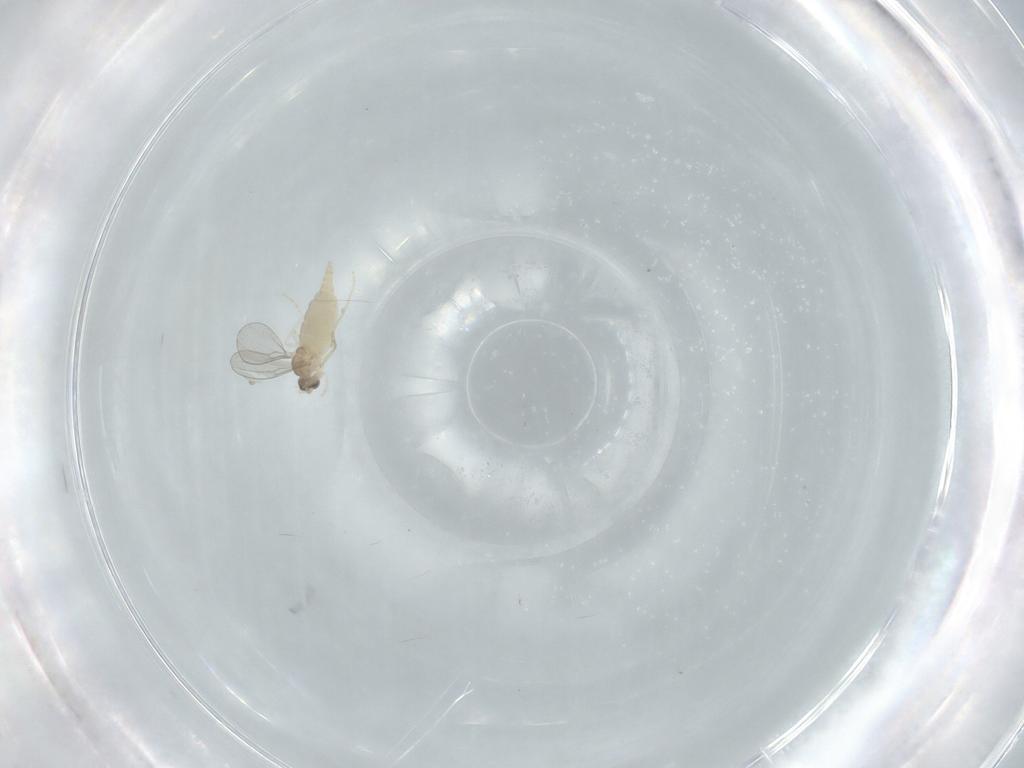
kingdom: Animalia
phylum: Arthropoda
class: Insecta
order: Diptera
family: Cecidomyiidae
